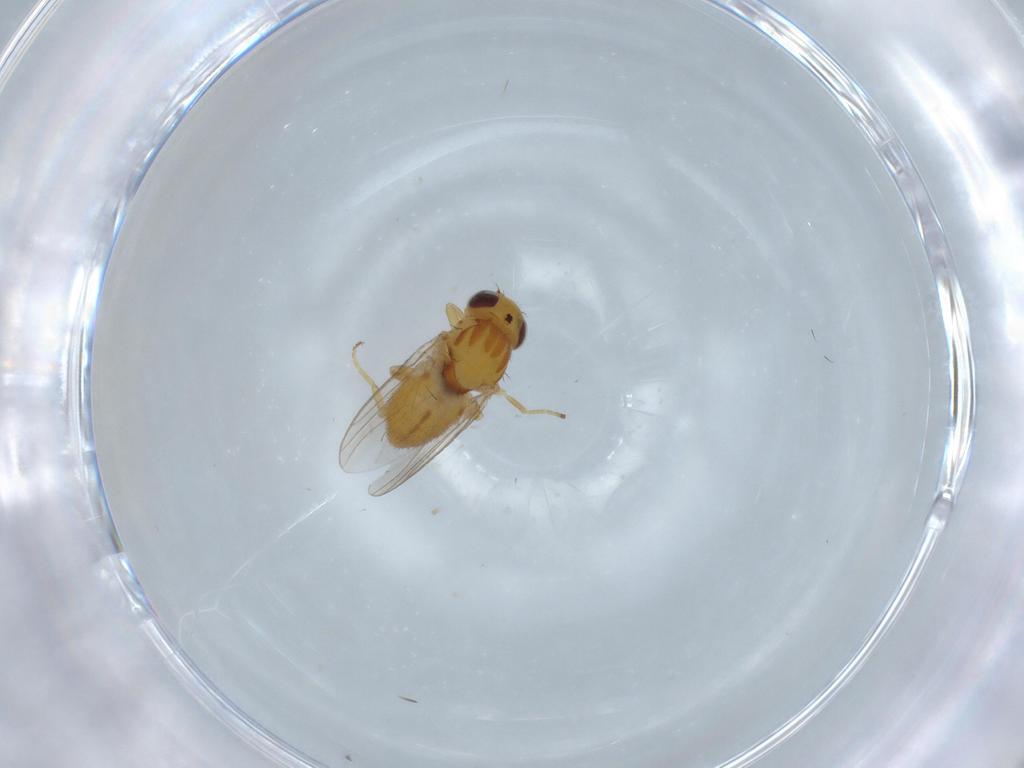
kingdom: Animalia
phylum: Arthropoda
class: Insecta
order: Diptera
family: Chloropidae
